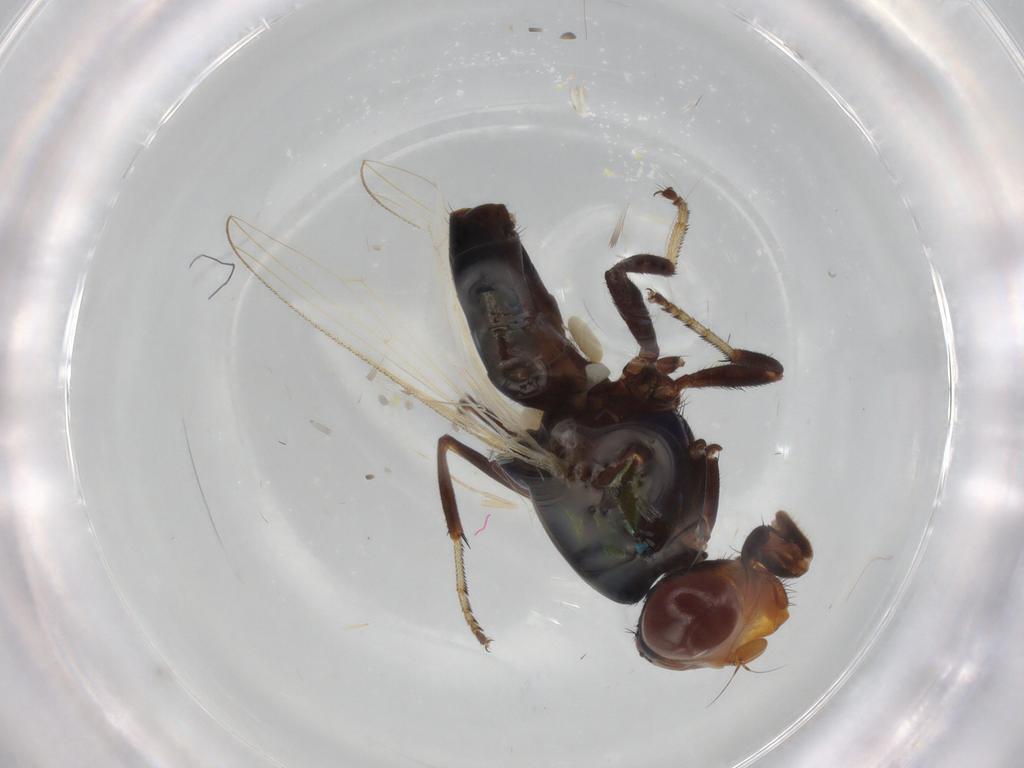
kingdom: Animalia
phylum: Arthropoda
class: Insecta
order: Diptera
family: Ulidiidae
